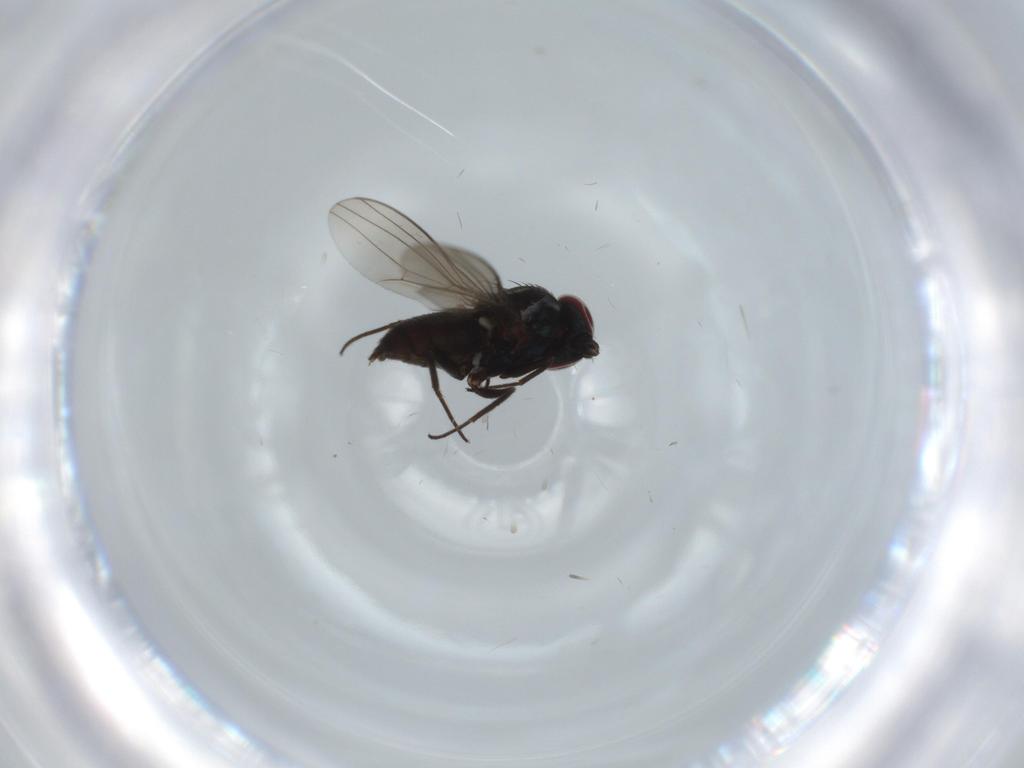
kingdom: Animalia
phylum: Arthropoda
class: Insecta
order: Diptera
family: Dolichopodidae
